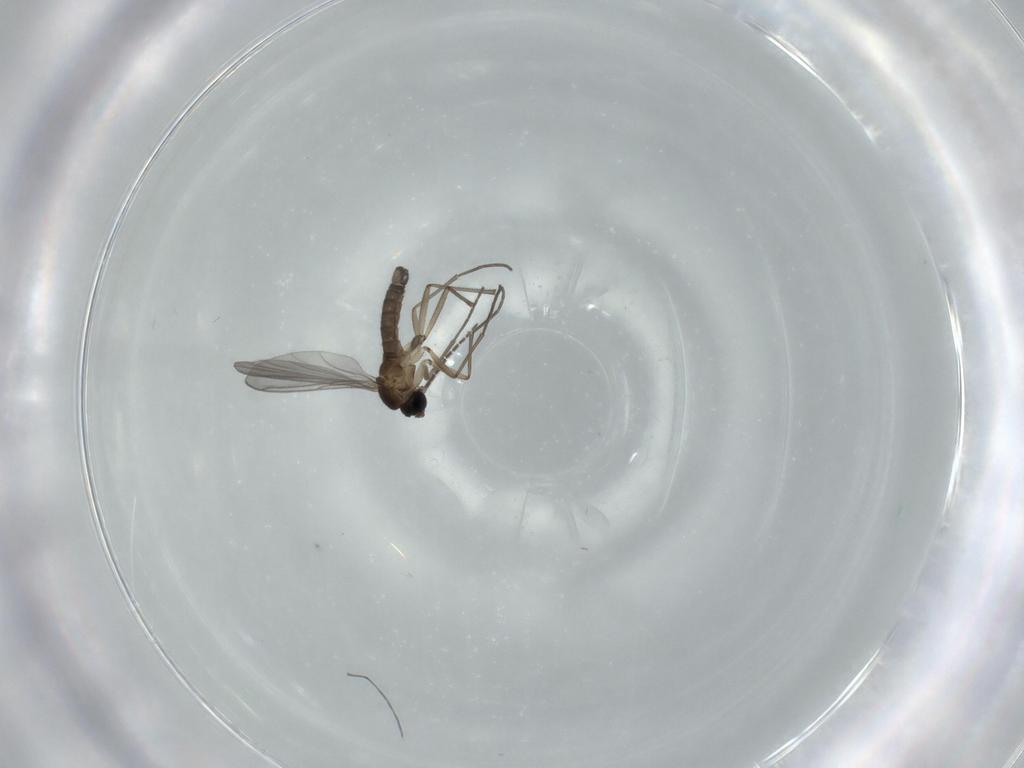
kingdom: Animalia
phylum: Arthropoda
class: Insecta
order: Diptera
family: Sciaridae
